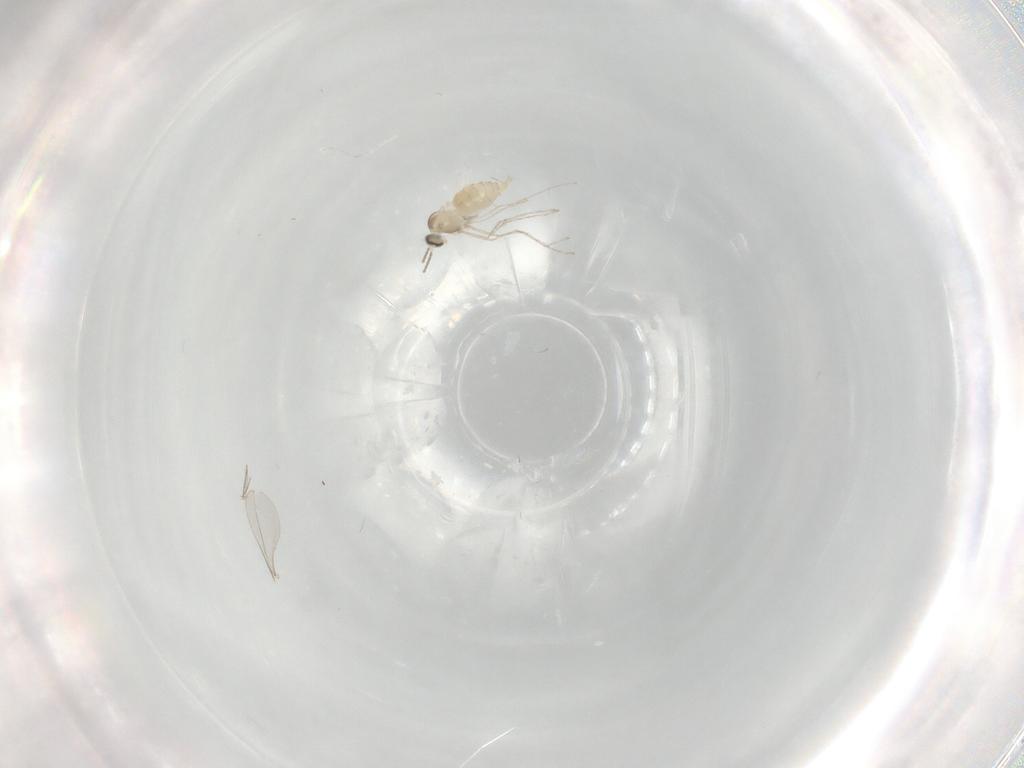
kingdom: Animalia
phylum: Arthropoda
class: Insecta
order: Diptera
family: Cecidomyiidae
